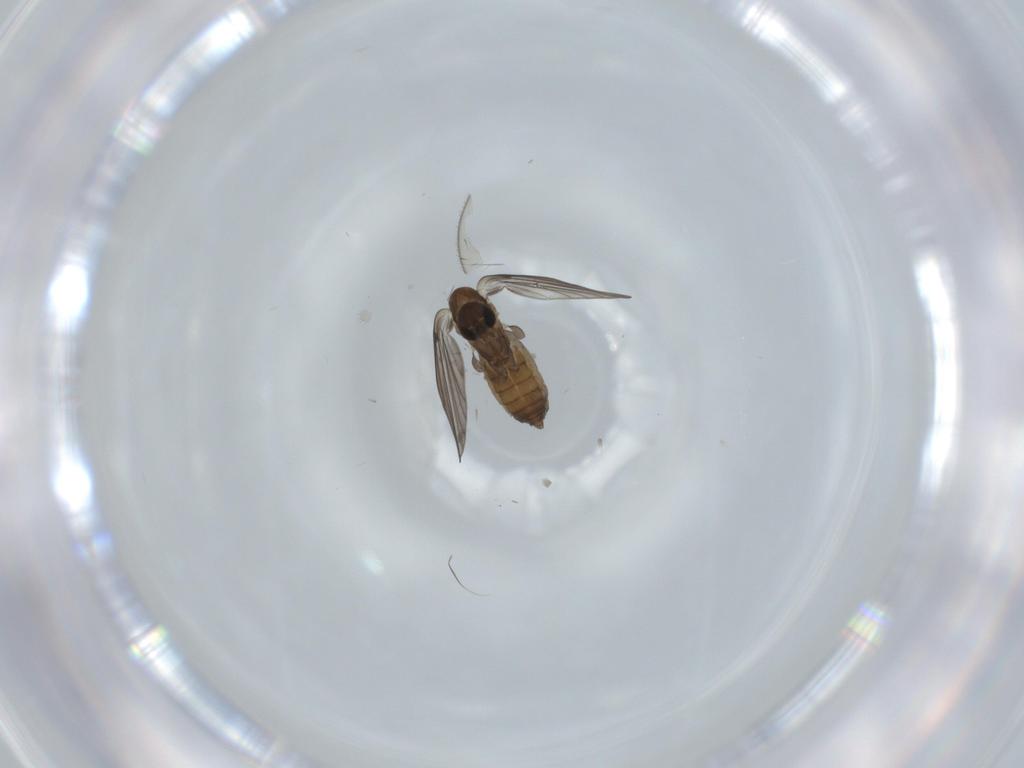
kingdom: Animalia
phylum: Arthropoda
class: Insecta
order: Diptera
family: Psychodidae
